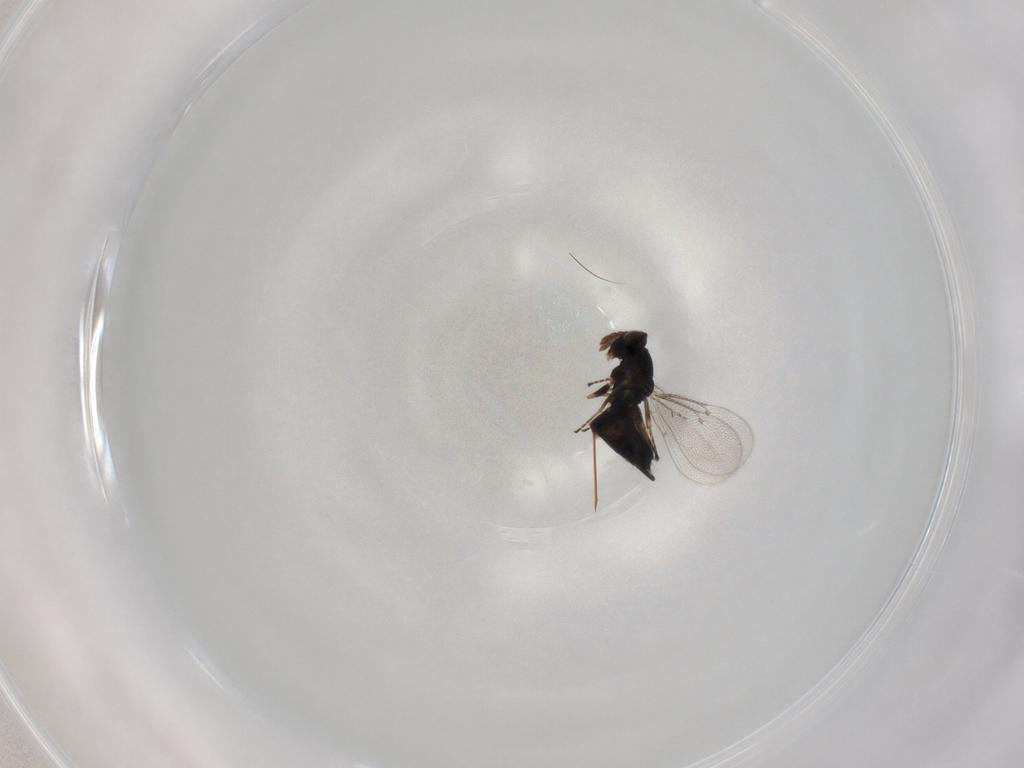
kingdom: Animalia
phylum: Arthropoda
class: Insecta
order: Hymenoptera
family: Eulophidae
